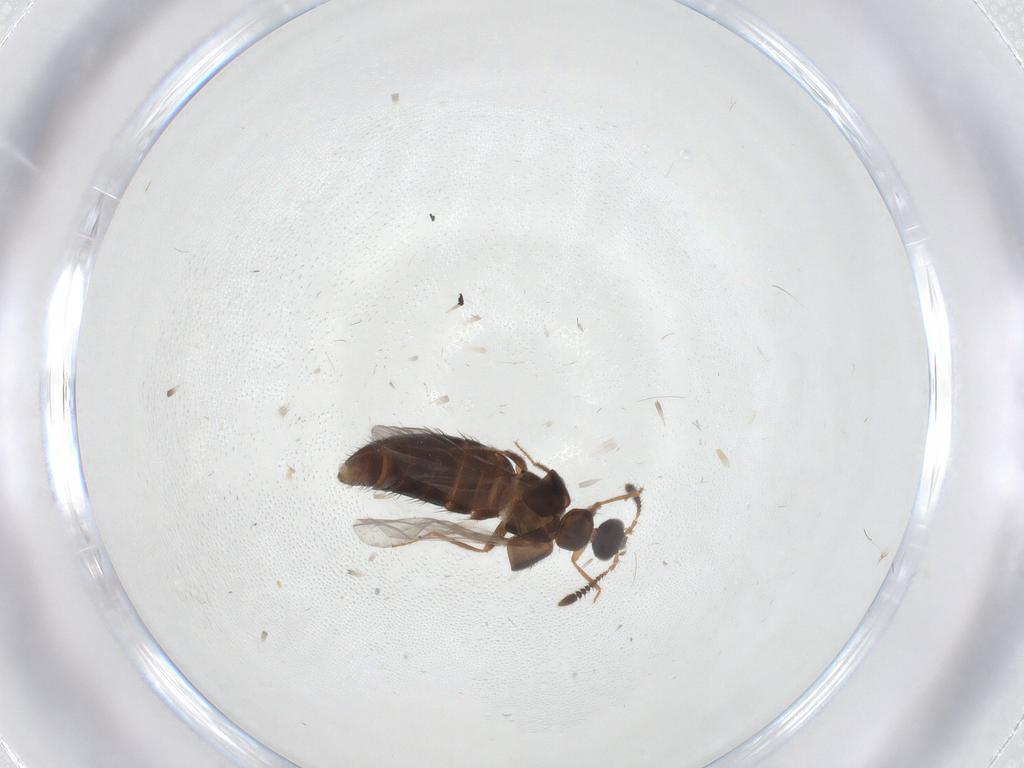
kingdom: Animalia
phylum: Arthropoda
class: Insecta
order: Coleoptera
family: Staphylinidae
